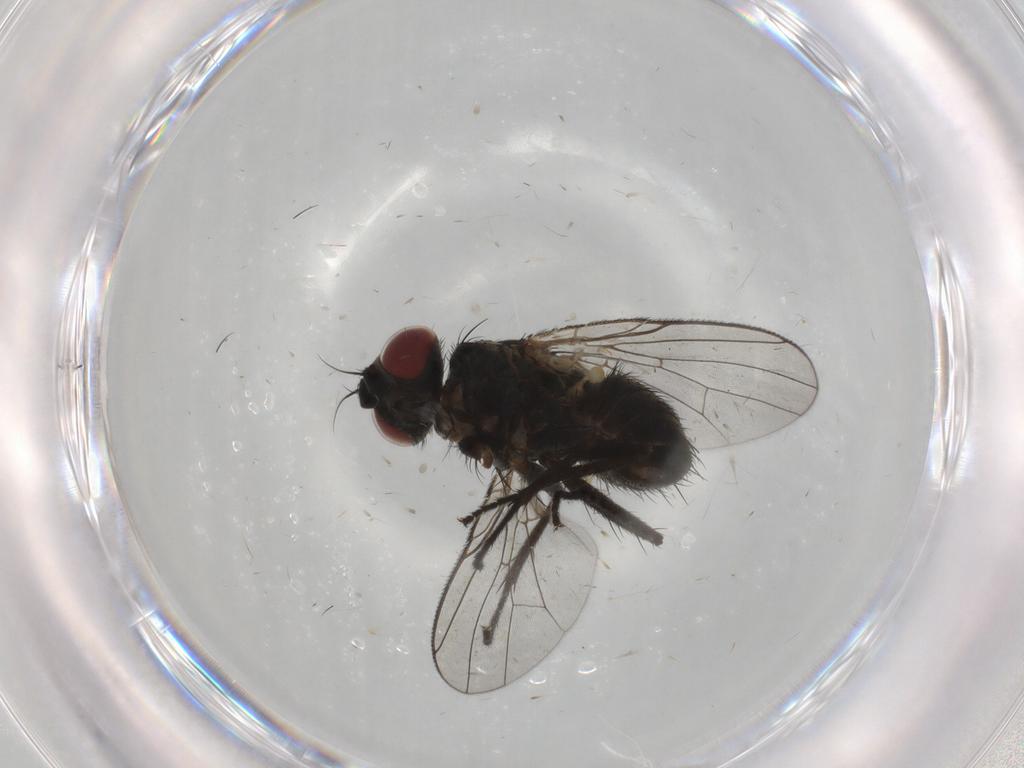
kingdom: Animalia
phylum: Arthropoda
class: Insecta
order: Diptera
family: Muscidae
